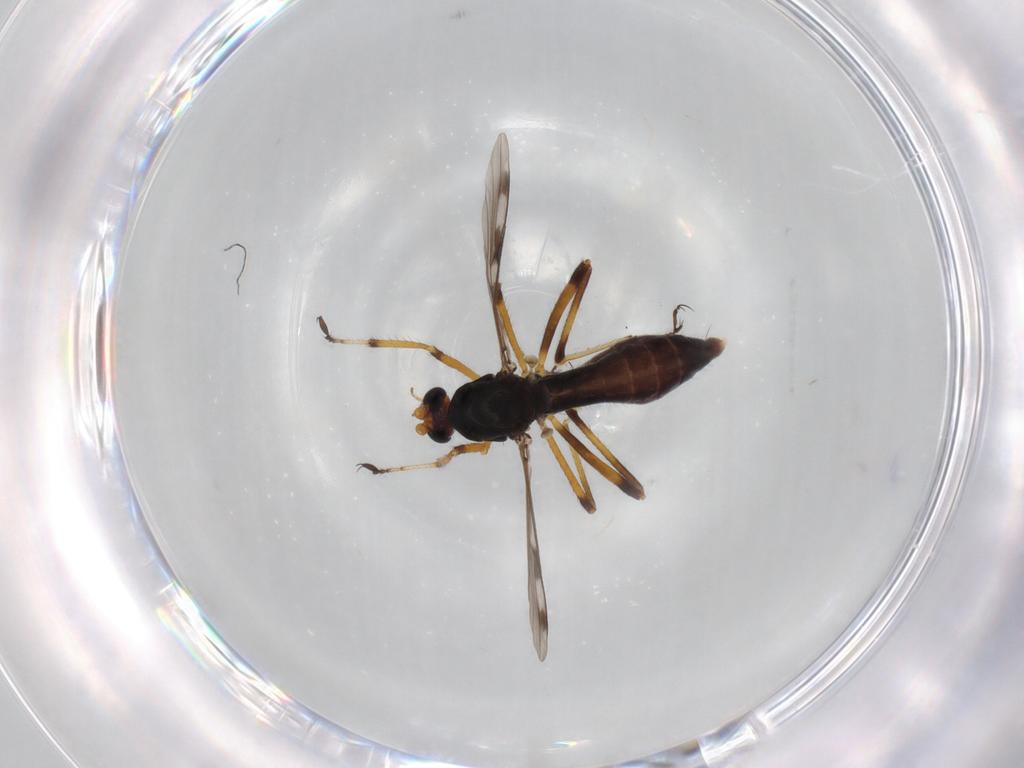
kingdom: Animalia
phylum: Arthropoda
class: Insecta
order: Diptera
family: Ceratopogonidae
